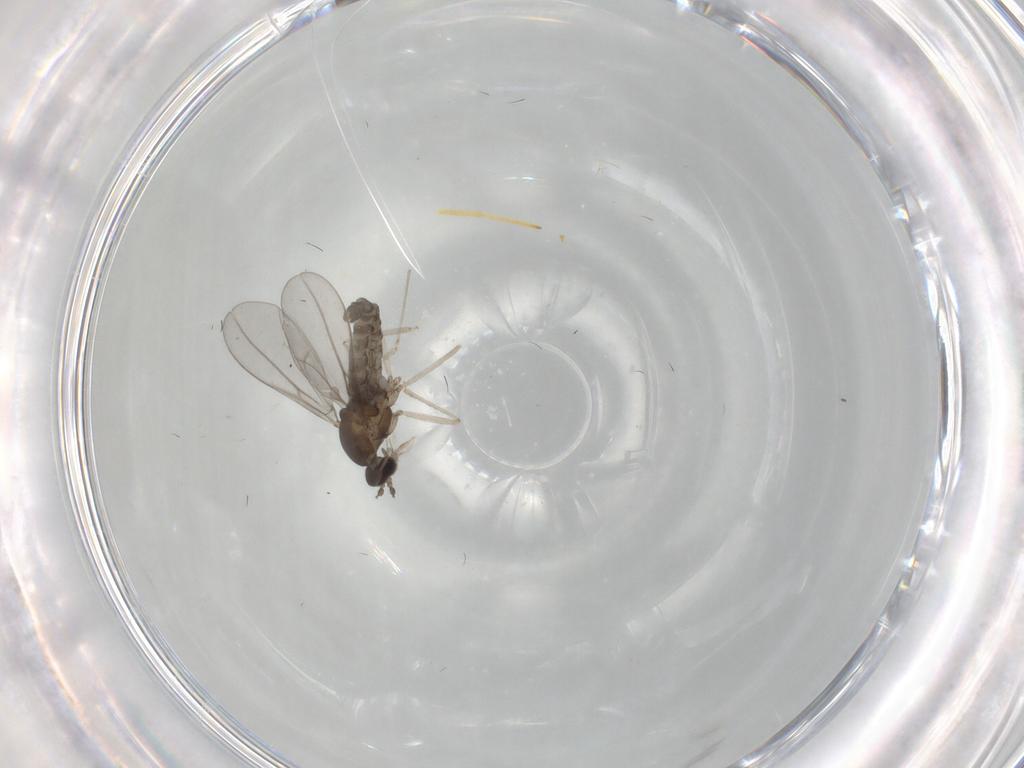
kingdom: Animalia
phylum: Arthropoda
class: Insecta
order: Diptera
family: Cecidomyiidae
